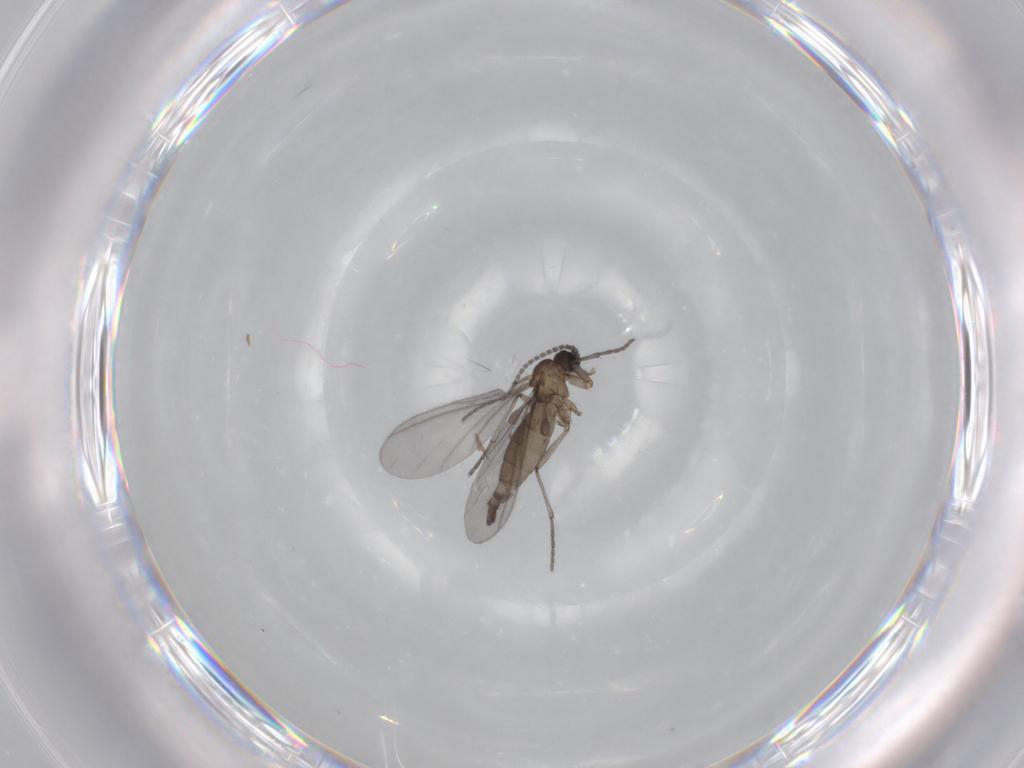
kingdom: Animalia
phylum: Arthropoda
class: Insecta
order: Diptera
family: Sciaridae
